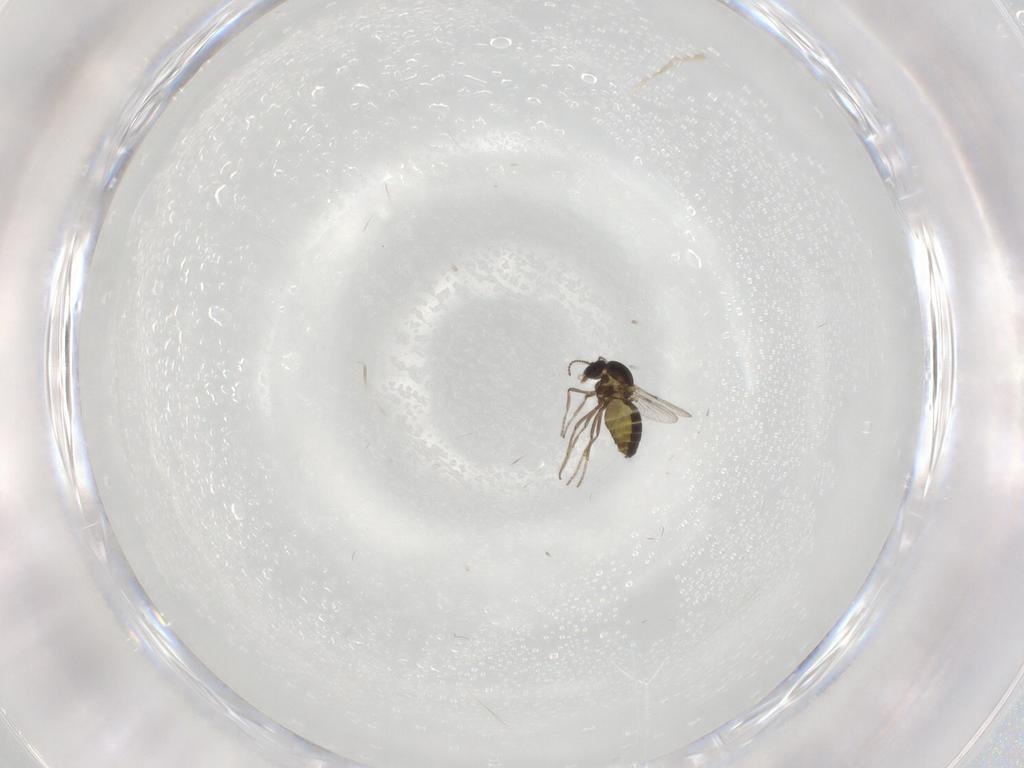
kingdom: Animalia
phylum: Arthropoda
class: Insecta
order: Diptera
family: Ceratopogonidae
